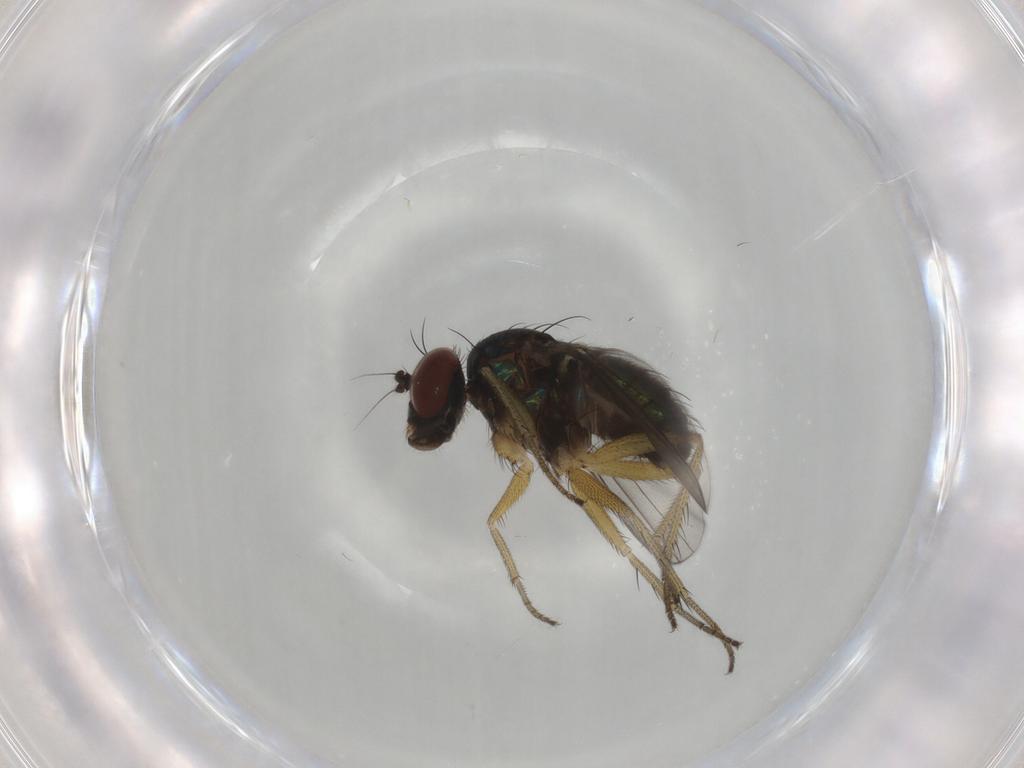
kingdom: Animalia
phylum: Arthropoda
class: Insecta
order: Diptera
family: Dolichopodidae
